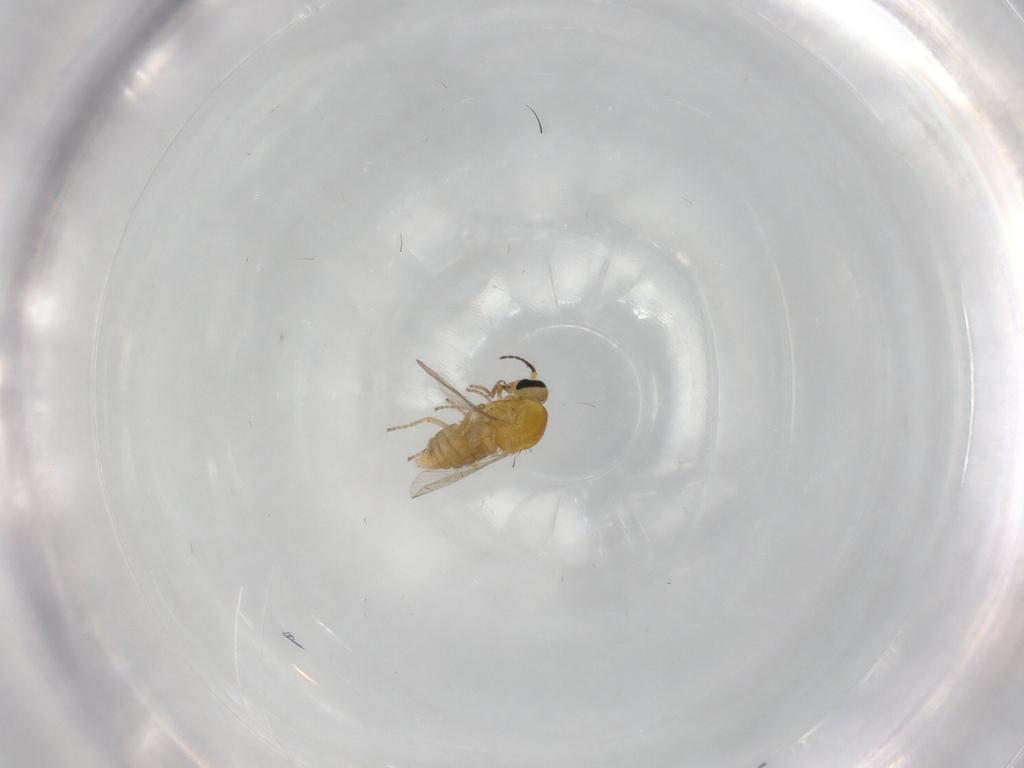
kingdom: Animalia
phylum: Arthropoda
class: Insecta
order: Diptera
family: Ceratopogonidae
